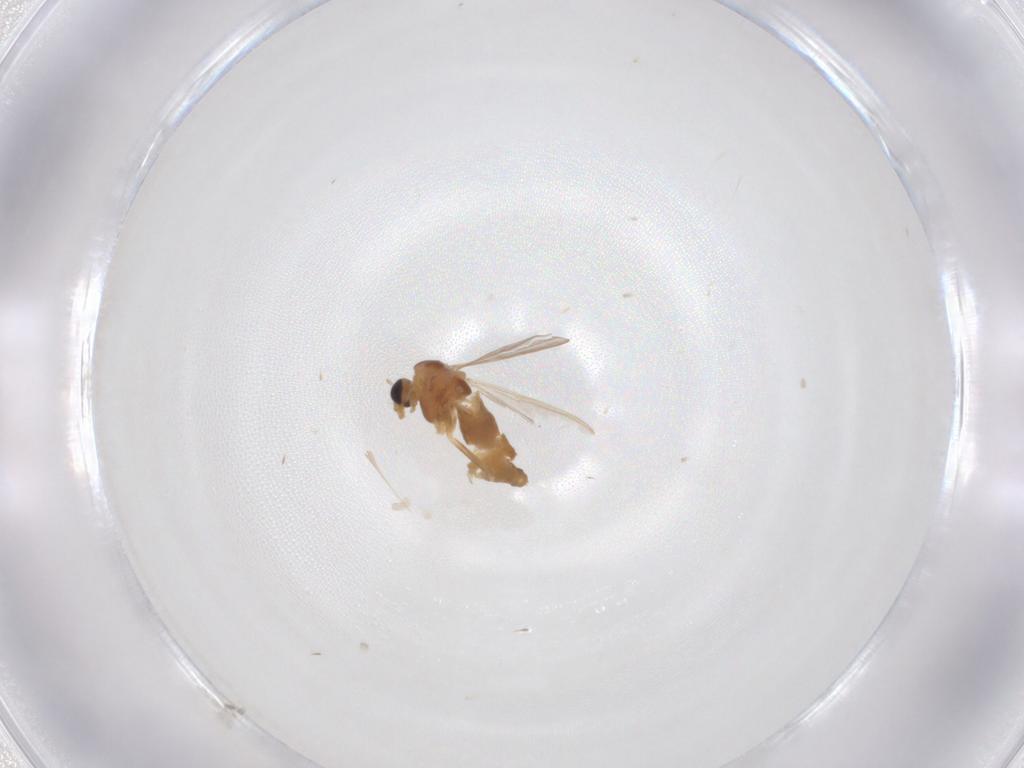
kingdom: Animalia
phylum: Arthropoda
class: Insecta
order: Diptera
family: Chironomidae
